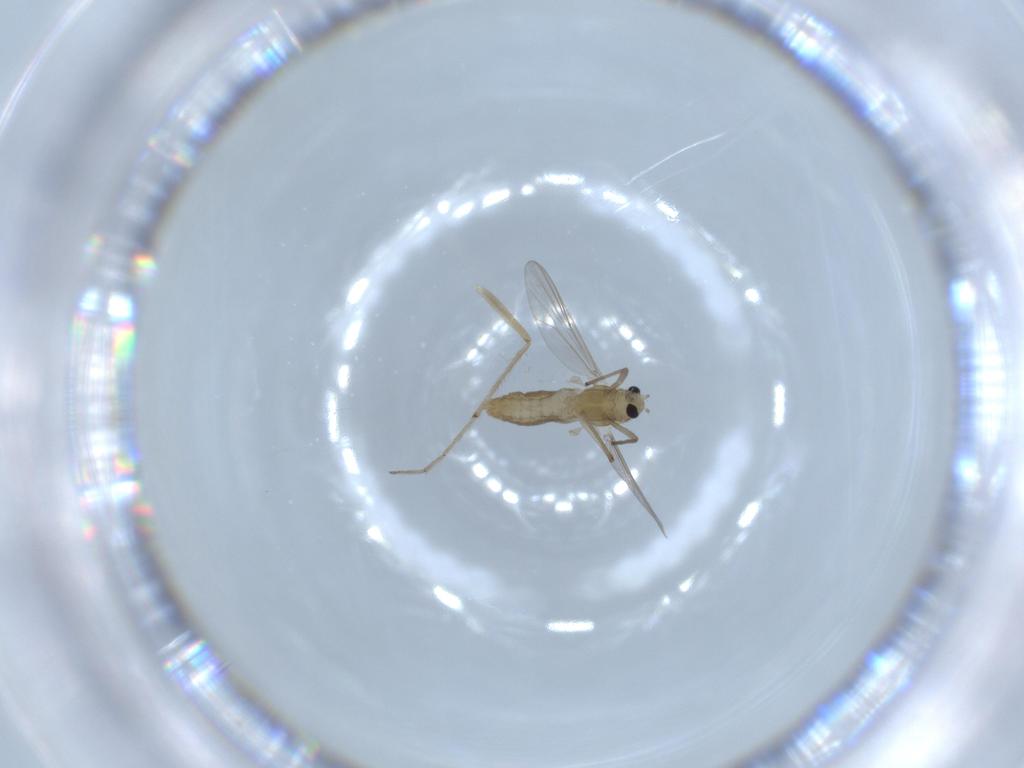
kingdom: Animalia
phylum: Arthropoda
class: Insecta
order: Diptera
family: Chironomidae
